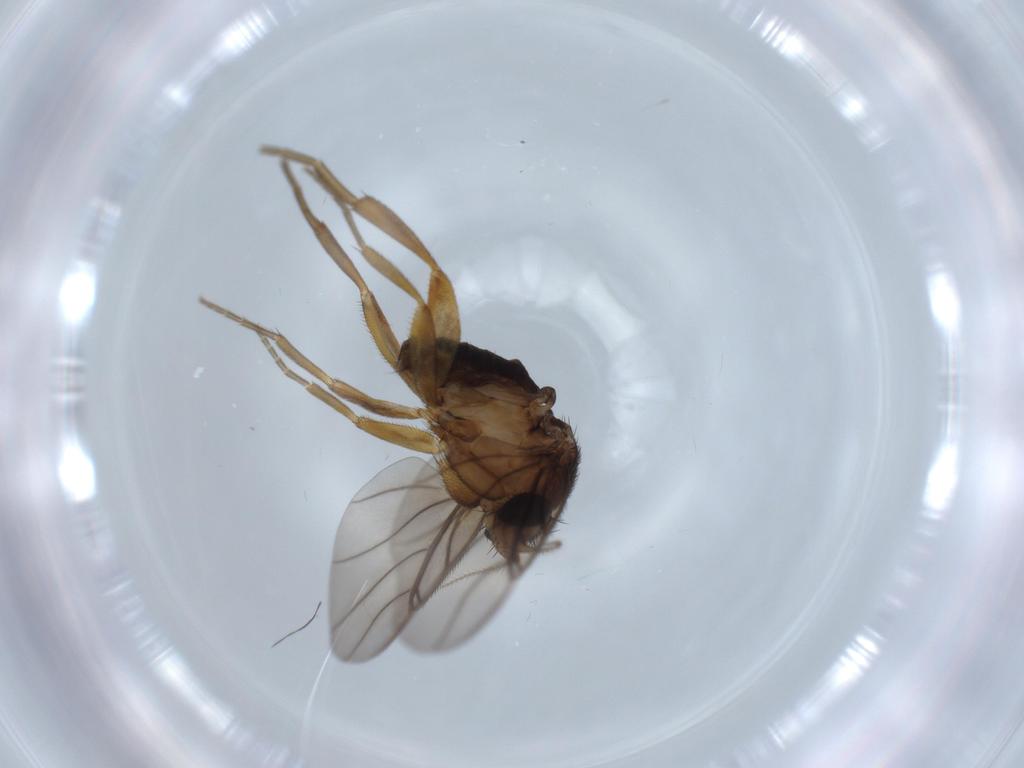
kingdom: Animalia
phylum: Arthropoda
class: Insecta
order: Diptera
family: Phoridae
